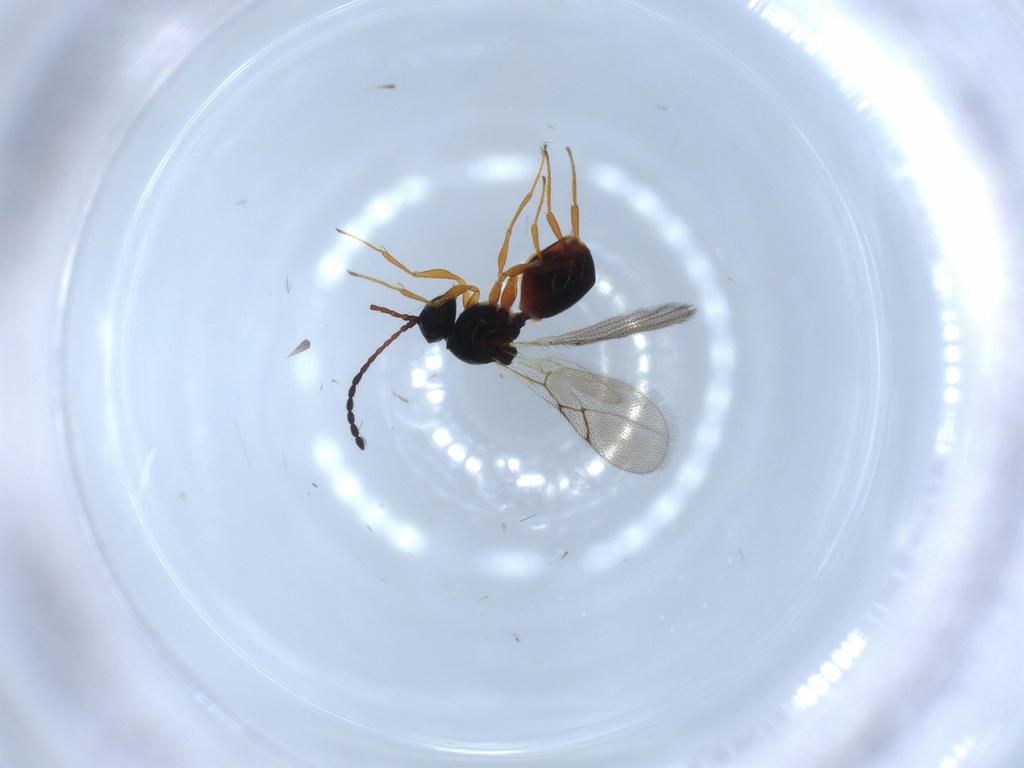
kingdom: Animalia
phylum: Arthropoda
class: Insecta
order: Hymenoptera
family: Figitidae
